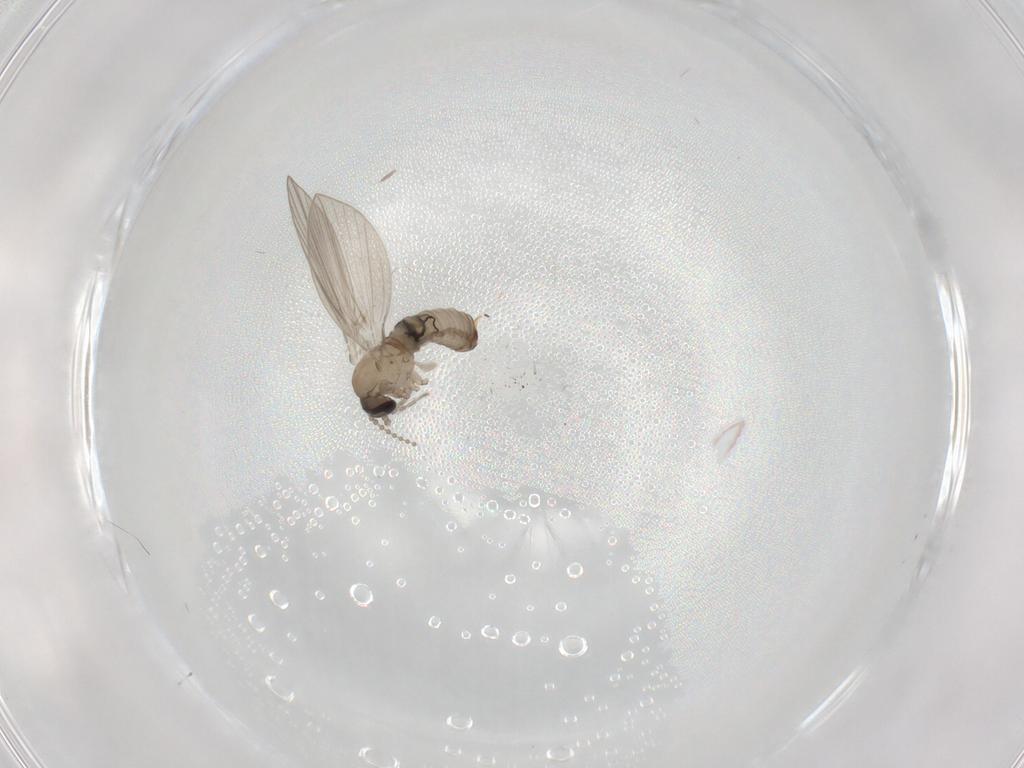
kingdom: Animalia
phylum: Arthropoda
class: Insecta
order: Diptera
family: Psychodidae
